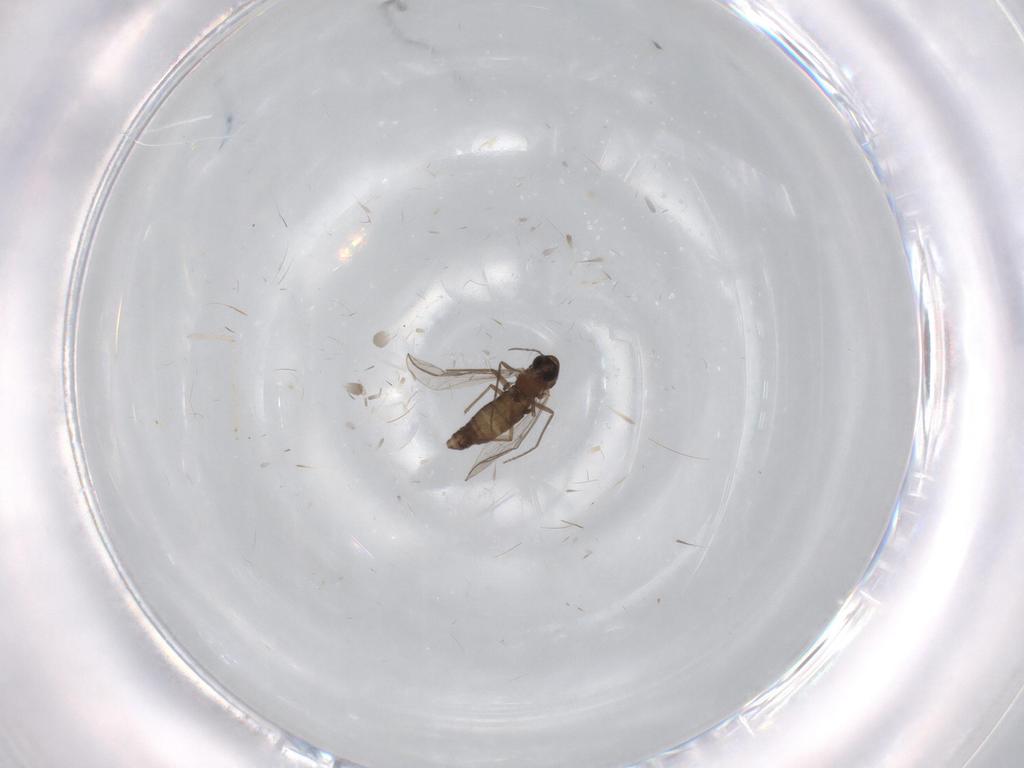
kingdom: Animalia
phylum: Arthropoda
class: Insecta
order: Diptera
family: Chironomidae
